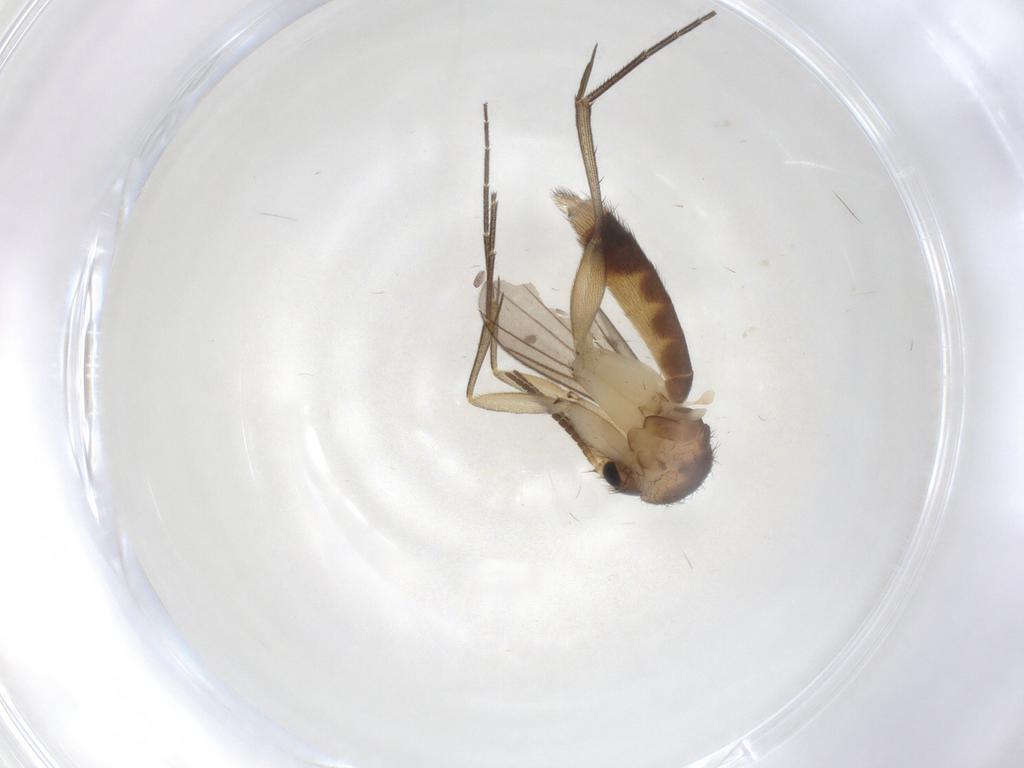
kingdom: Animalia
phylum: Arthropoda
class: Insecta
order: Diptera
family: Mycetophilidae
